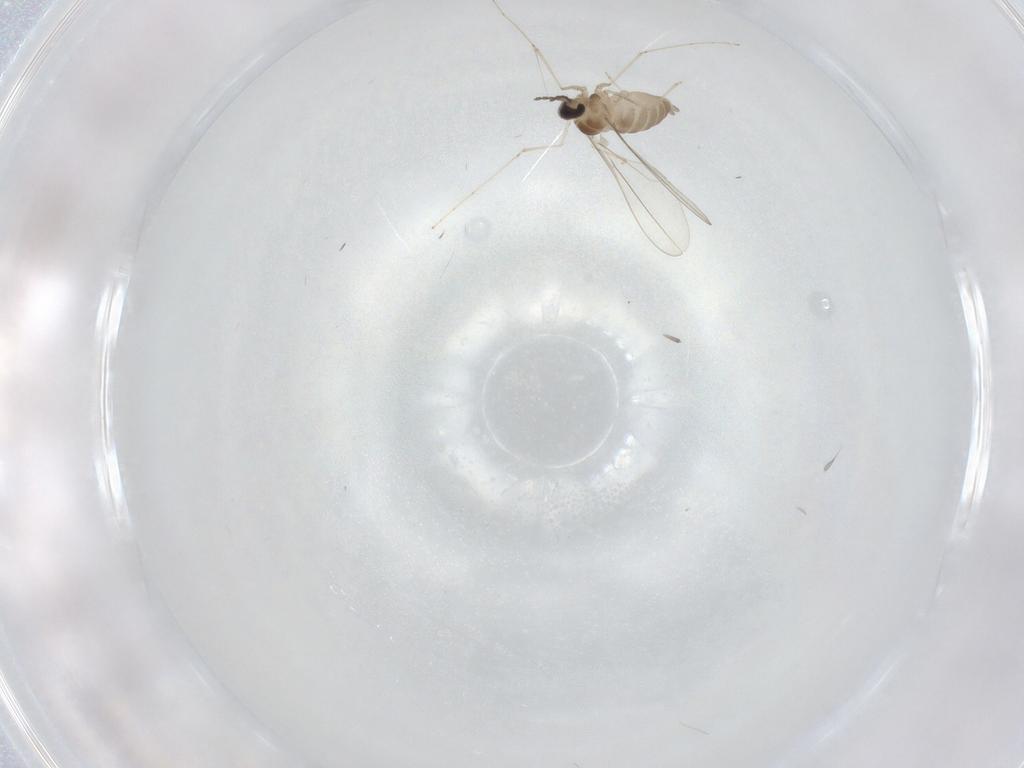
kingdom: Animalia
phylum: Arthropoda
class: Insecta
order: Diptera
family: Cecidomyiidae
